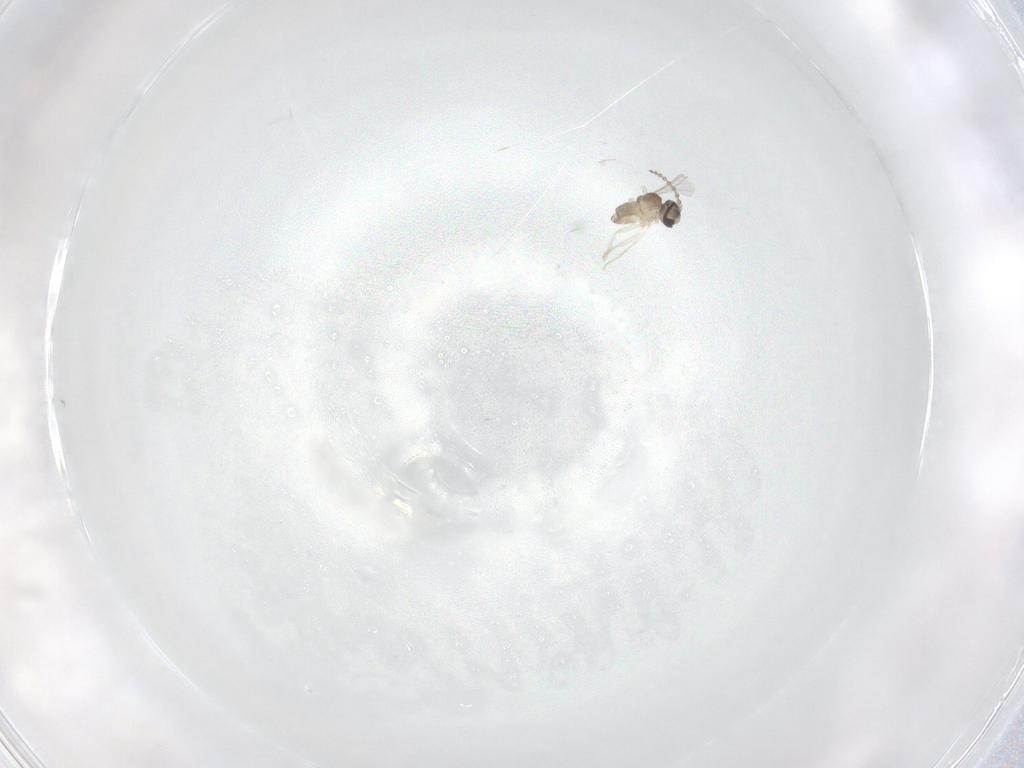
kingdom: Animalia
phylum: Arthropoda
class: Insecta
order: Diptera
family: Cecidomyiidae
